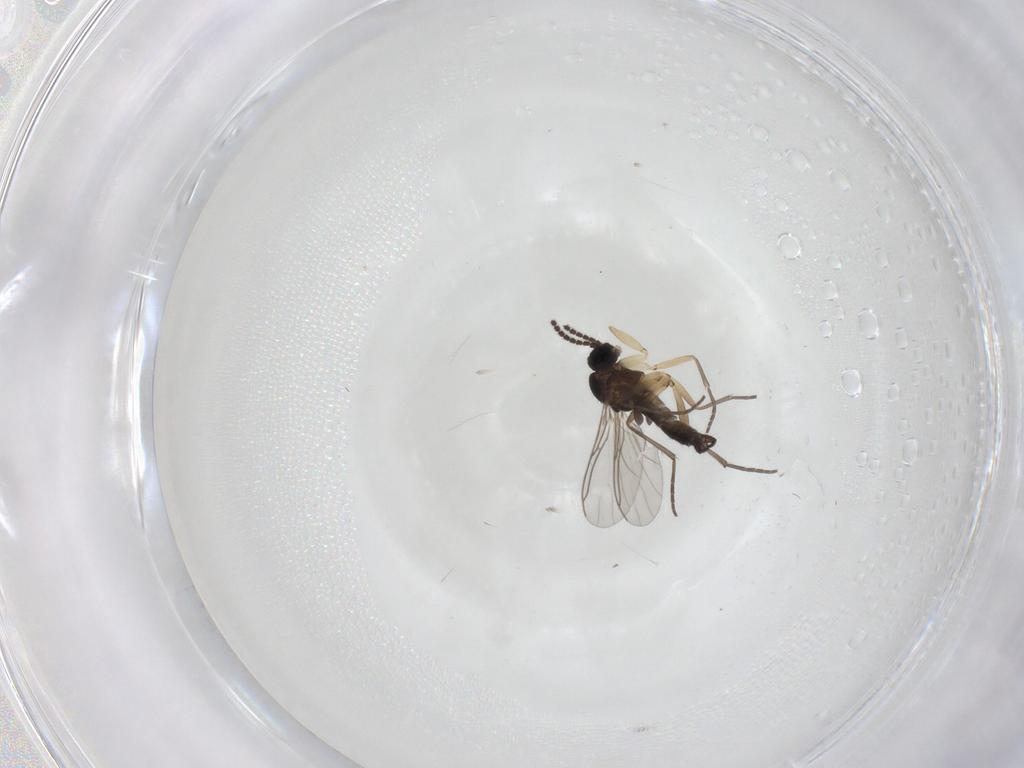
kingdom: Animalia
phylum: Arthropoda
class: Insecta
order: Diptera
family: Sciaridae
